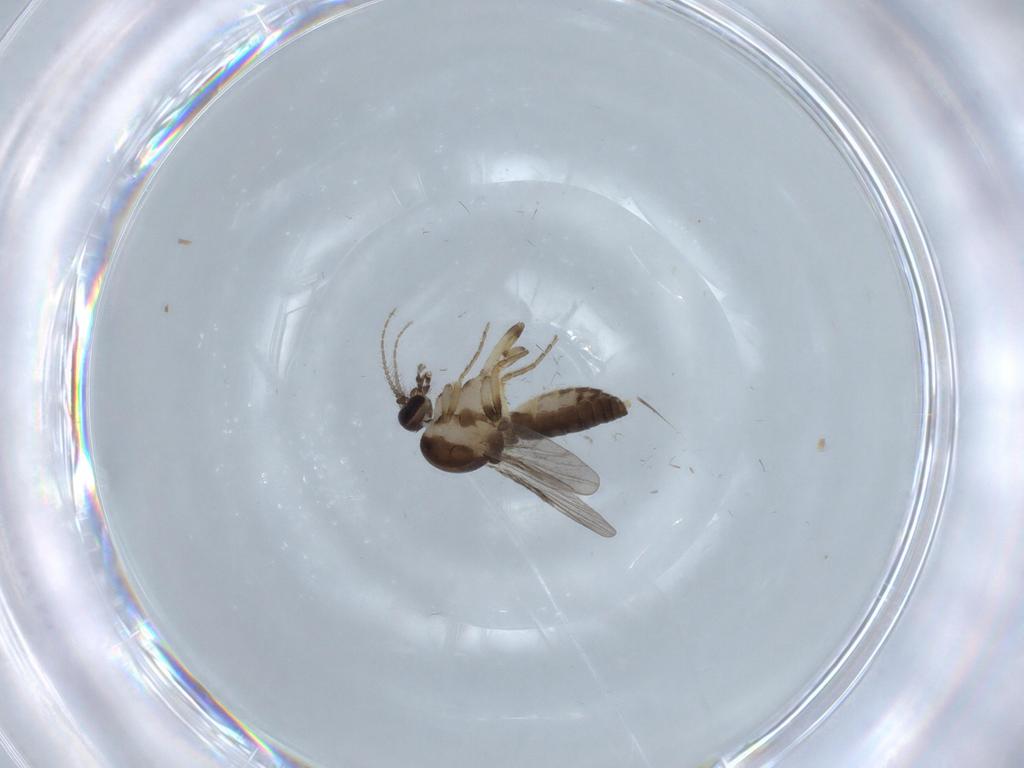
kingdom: Animalia
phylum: Arthropoda
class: Insecta
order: Diptera
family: Ceratopogonidae
